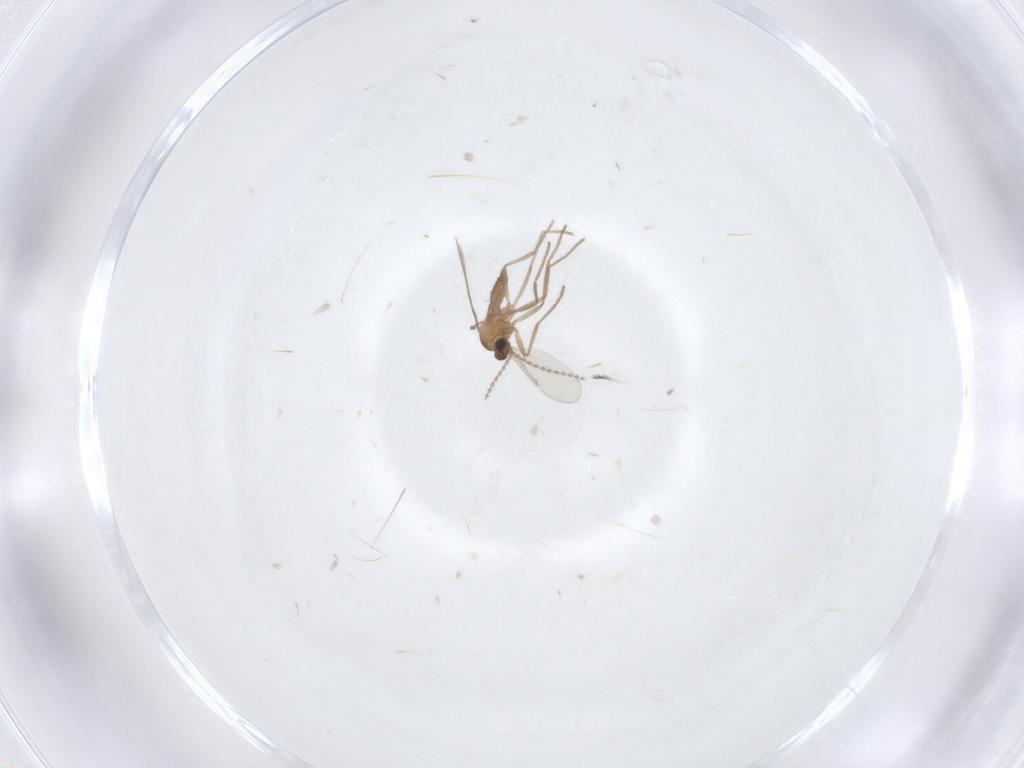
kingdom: Animalia
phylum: Arthropoda
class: Insecta
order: Diptera
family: Cecidomyiidae
